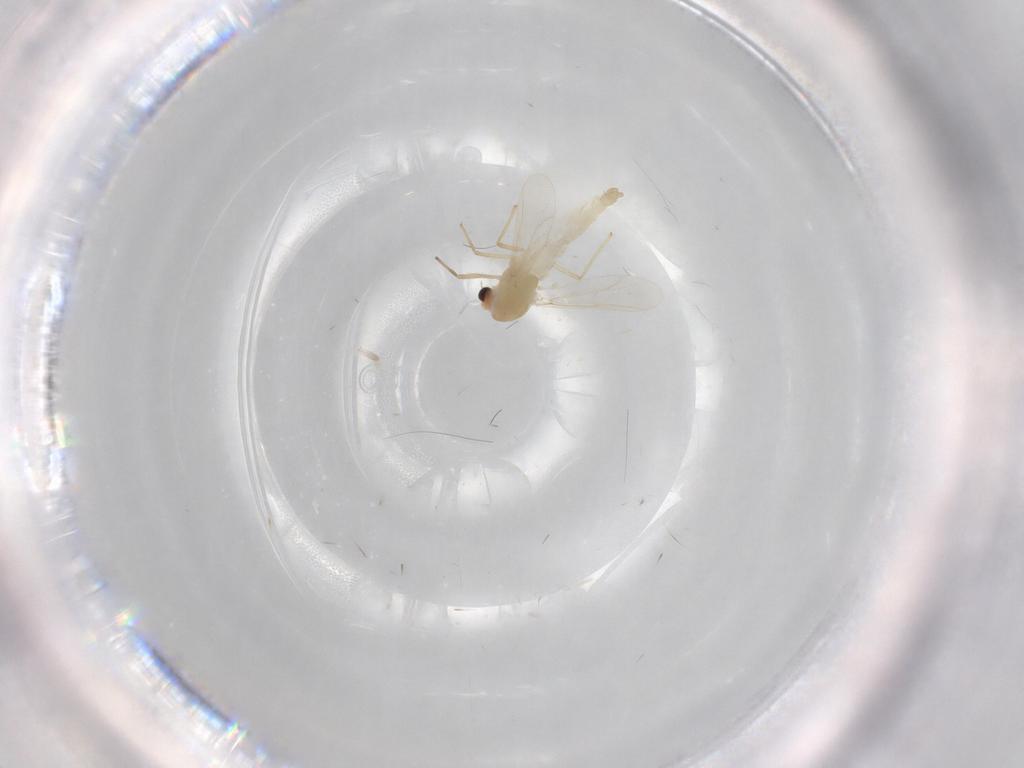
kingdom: Animalia
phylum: Arthropoda
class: Insecta
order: Diptera
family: Chironomidae
